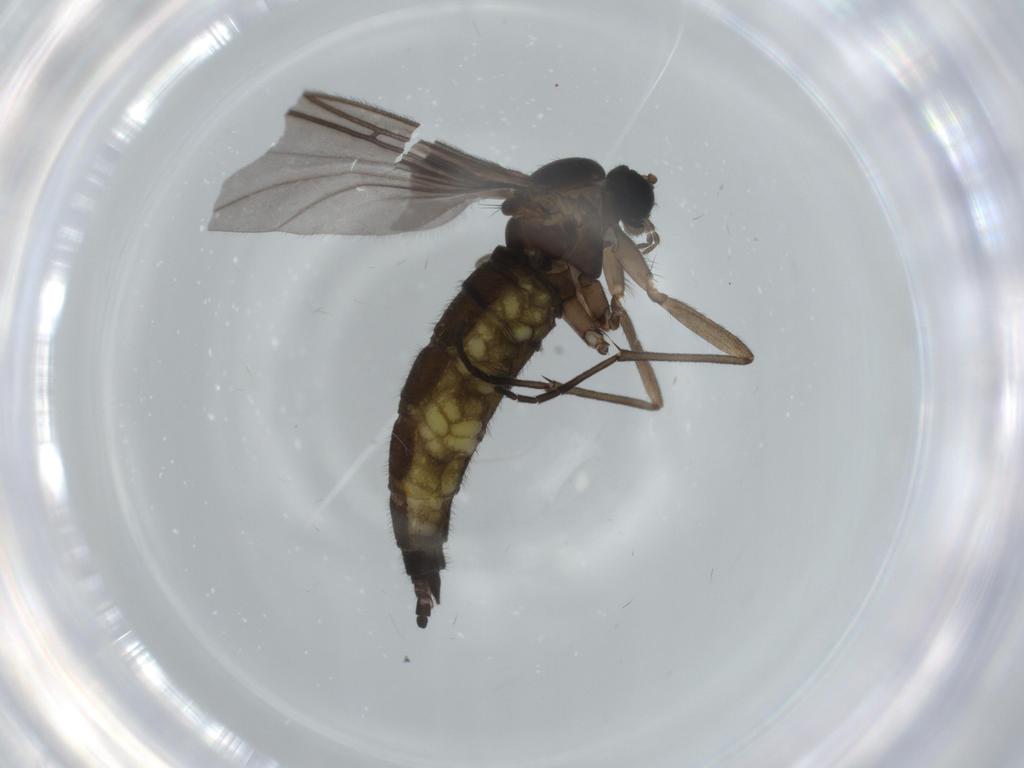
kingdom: Animalia
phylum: Arthropoda
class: Insecta
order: Diptera
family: Sciaridae
